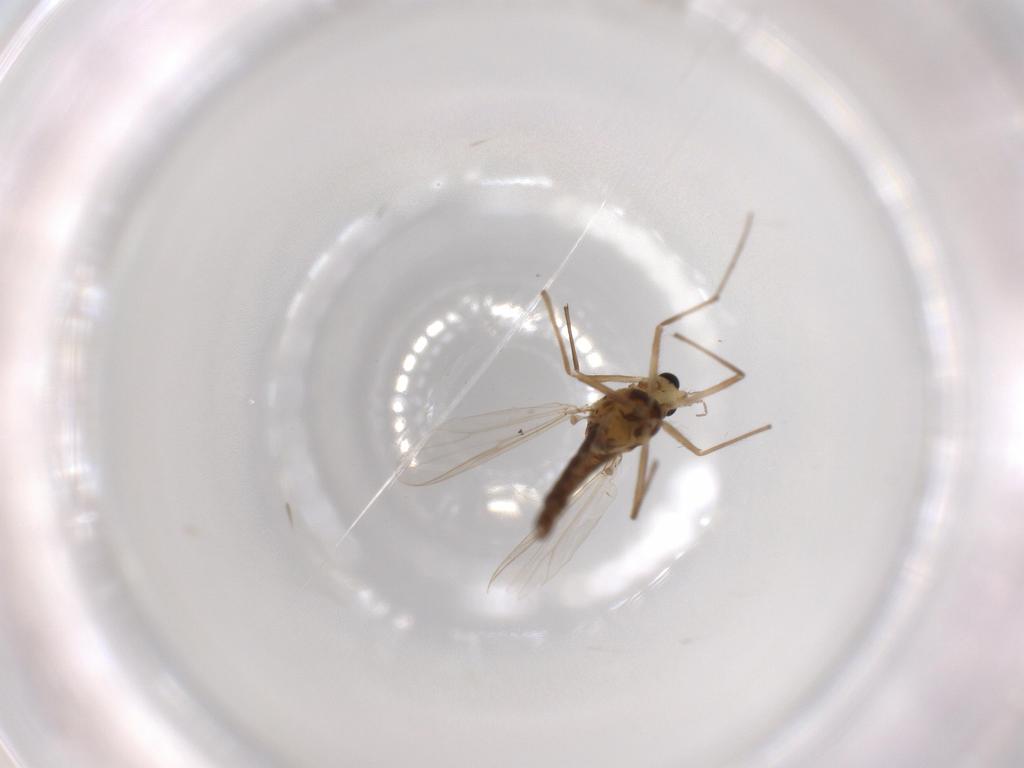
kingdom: Animalia
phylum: Arthropoda
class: Insecta
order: Diptera
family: Chironomidae
